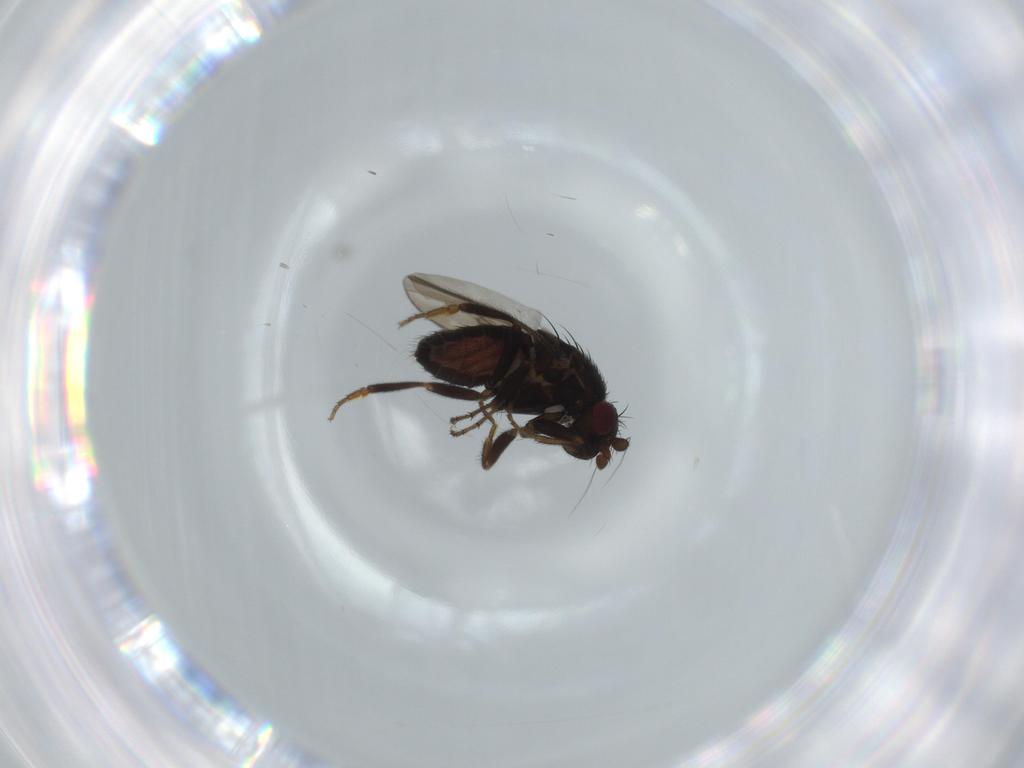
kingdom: Animalia
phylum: Arthropoda
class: Insecta
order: Diptera
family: Sphaeroceridae
